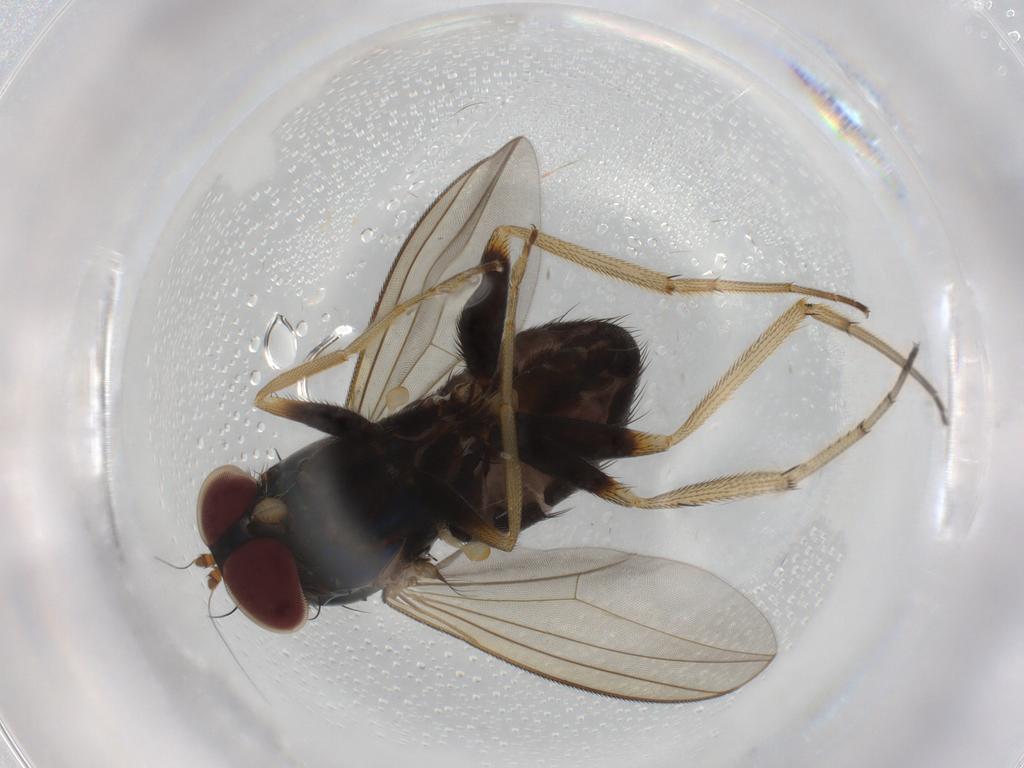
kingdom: Animalia
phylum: Arthropoda
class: Insecta
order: Diptera
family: Dolichopodidae
